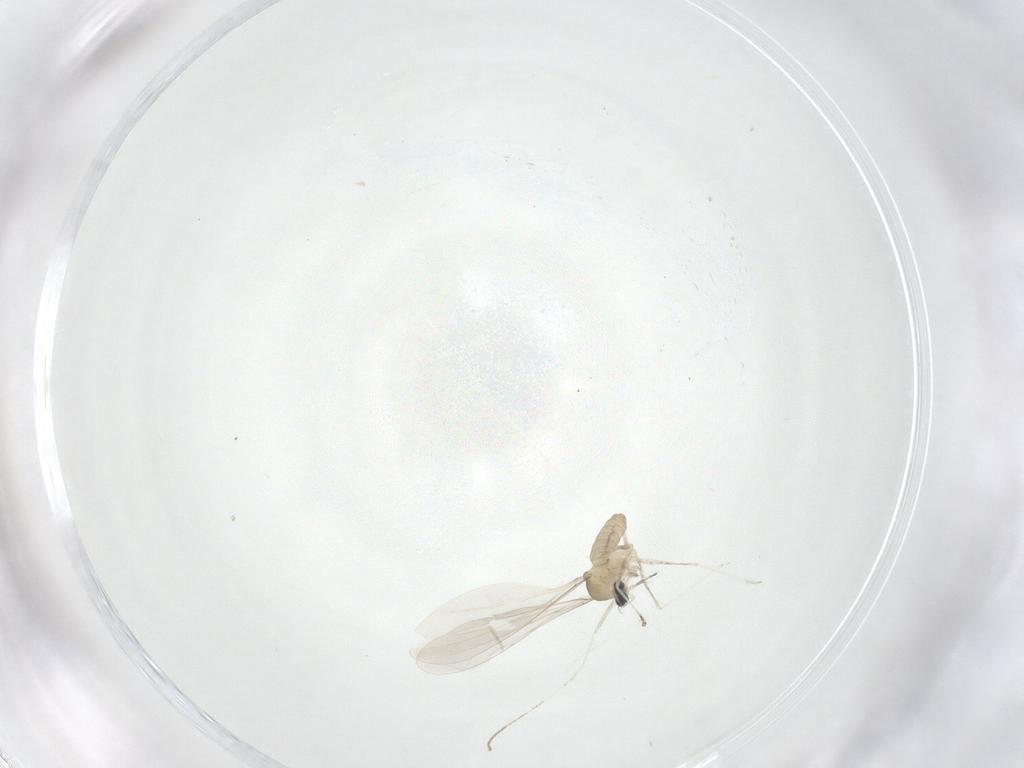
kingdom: Animalia
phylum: Arthropoda
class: Insecta
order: Diptera
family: Cecidomyiidae
